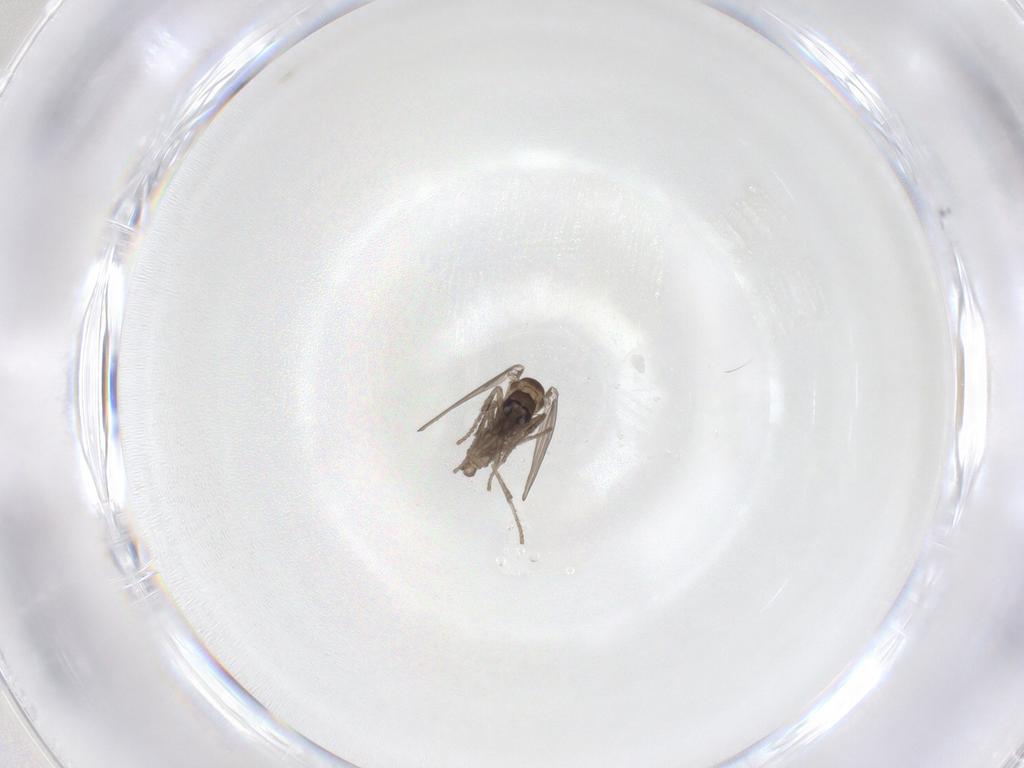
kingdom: Animalia
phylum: Arthropoda
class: Insecta
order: Diptera
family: Psychodidae
